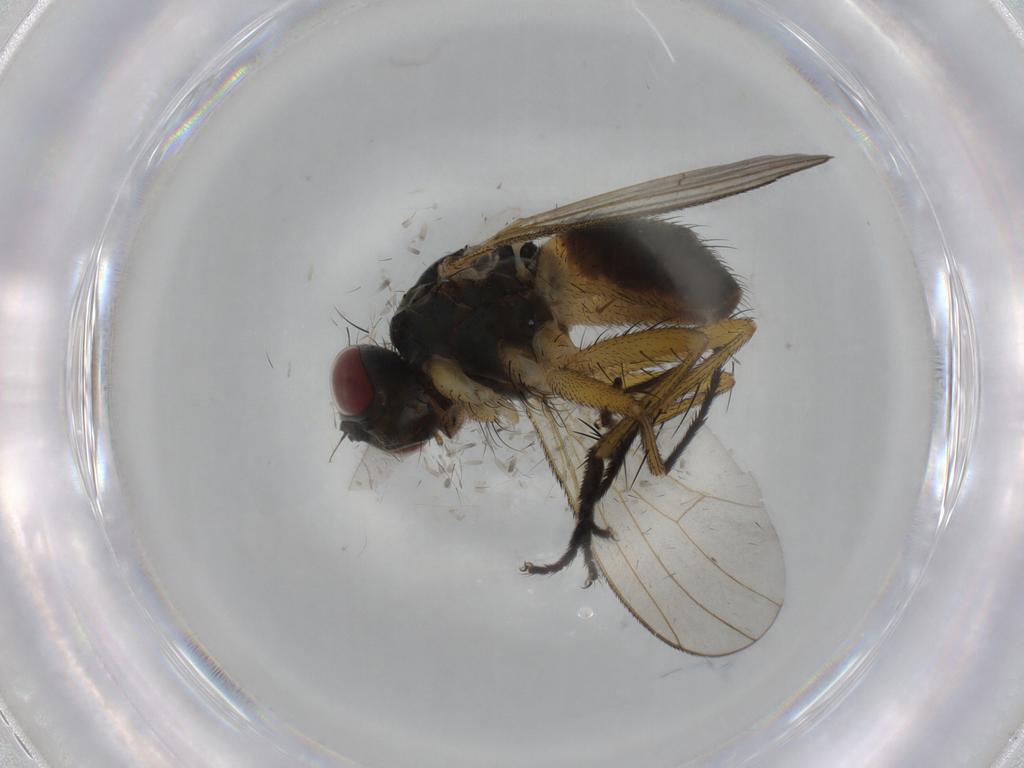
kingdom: Animalia
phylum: Arthropoda
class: Insecta
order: Diptera
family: Muscidae
